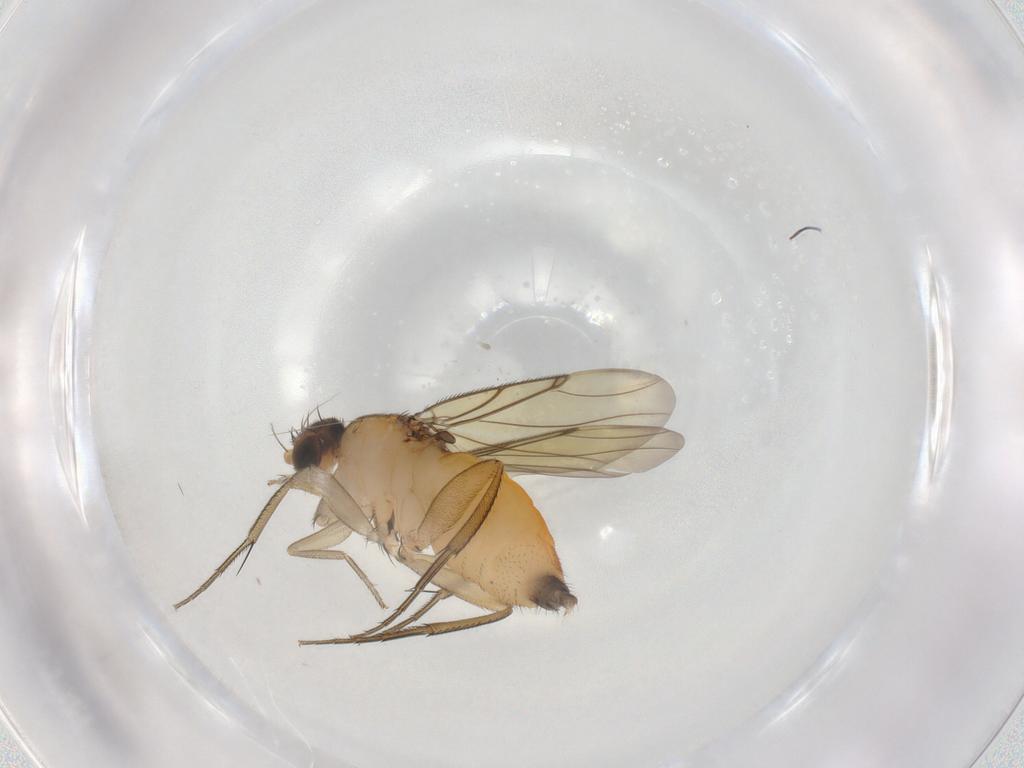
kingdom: Animalia
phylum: Arthropoda
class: Insecta
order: Diptera
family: Phoridae
